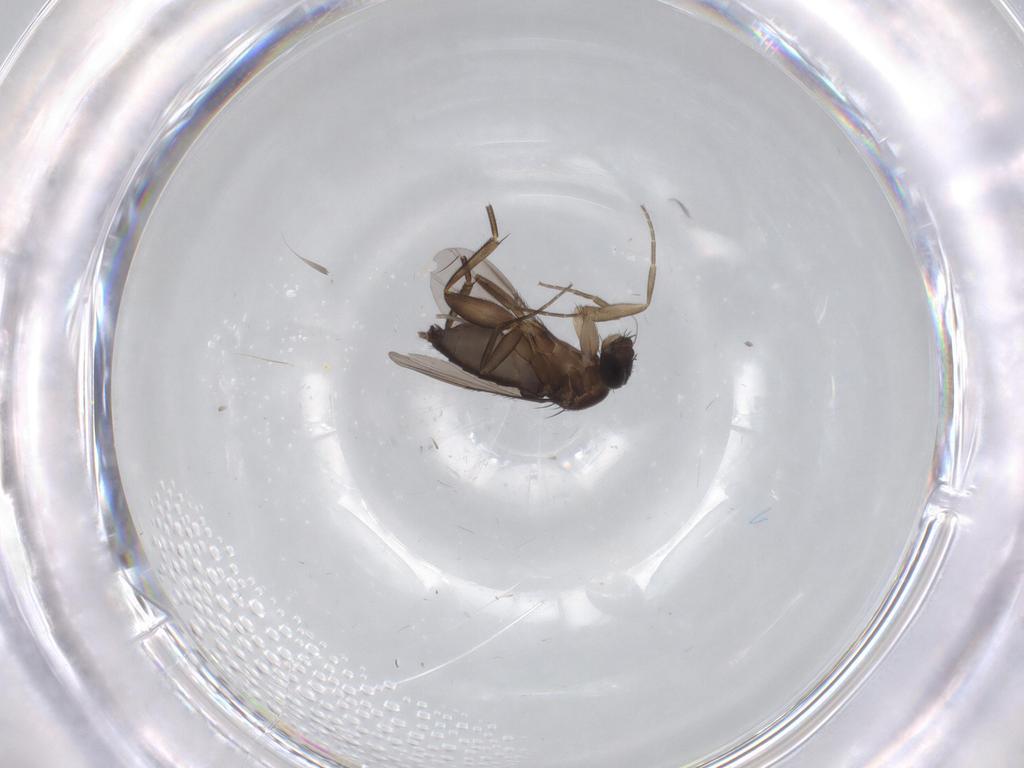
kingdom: Animalia
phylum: Arthropoda
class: Insecta
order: Diptera
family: Phoridae
